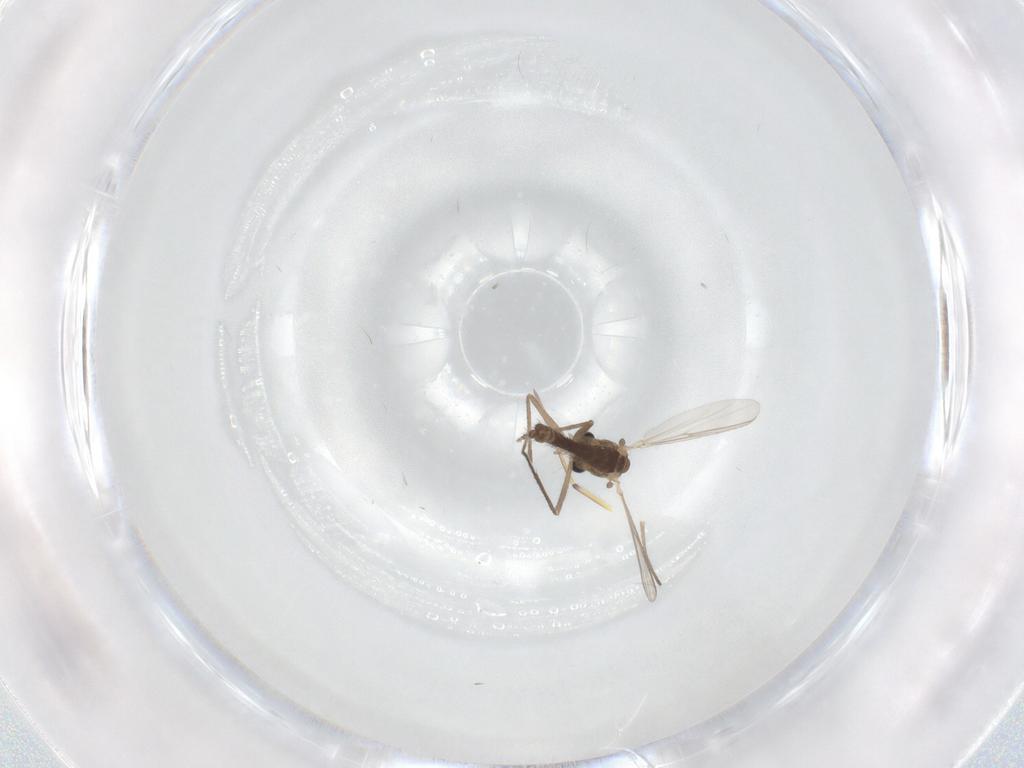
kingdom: Animalia
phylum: Arthropoda
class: Insecta
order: Diptera
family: Chironomidae
